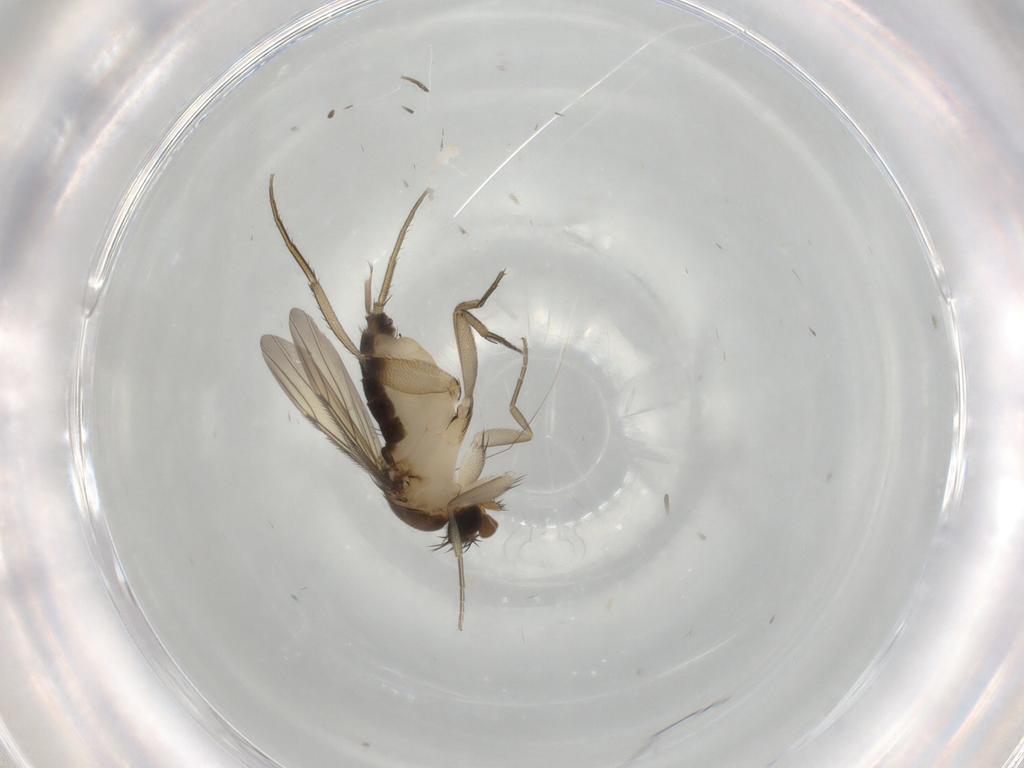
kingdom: Animalia
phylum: Arthropoda
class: Insecta
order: Diptera
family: Phoridae
